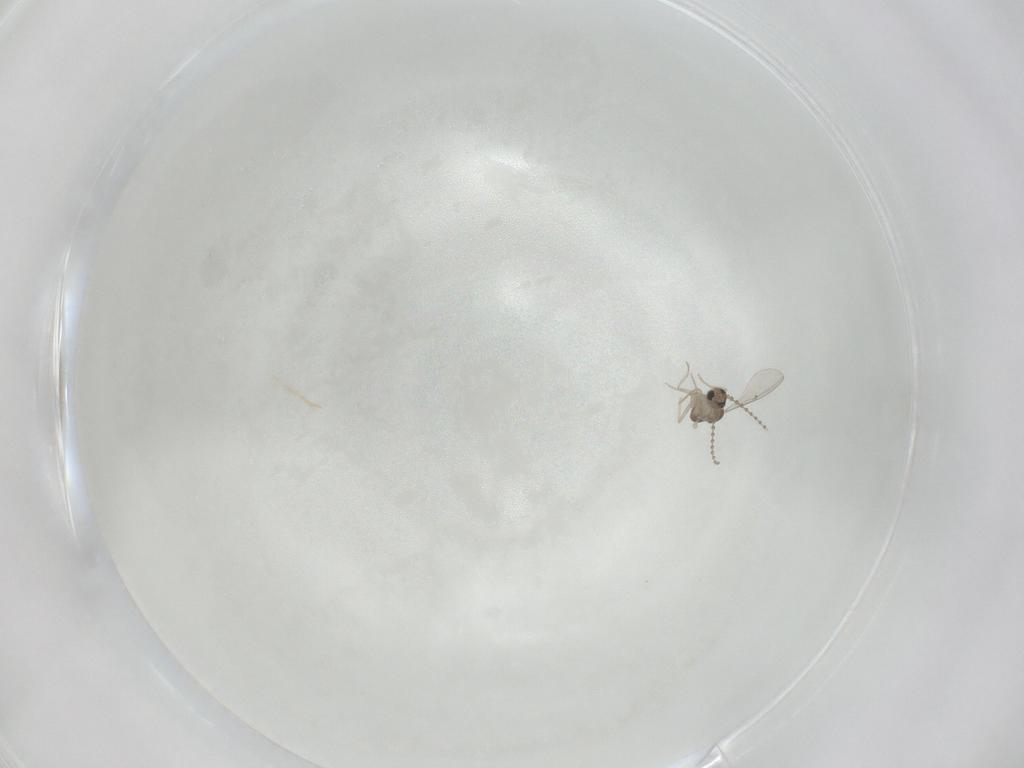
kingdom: Animalia
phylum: Arthropoda
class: Insecta
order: Diptera
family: Cecidomyiidae
